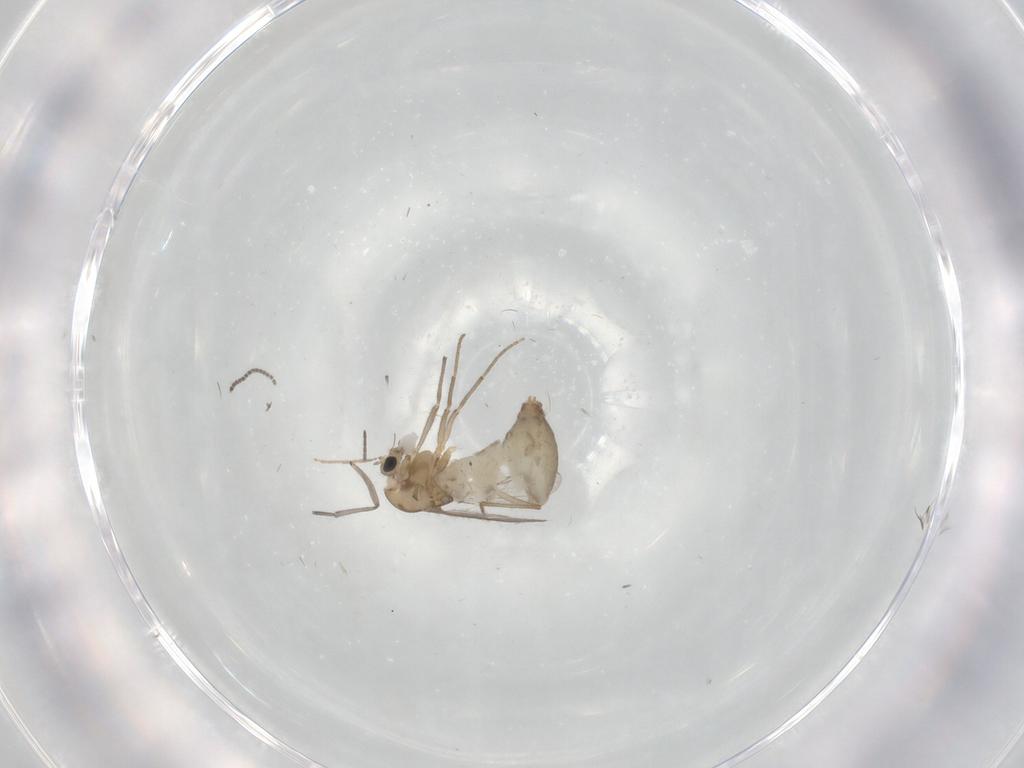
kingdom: Animalia
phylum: Arthropoda
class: Insecta
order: Diptera
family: Chironomidae
